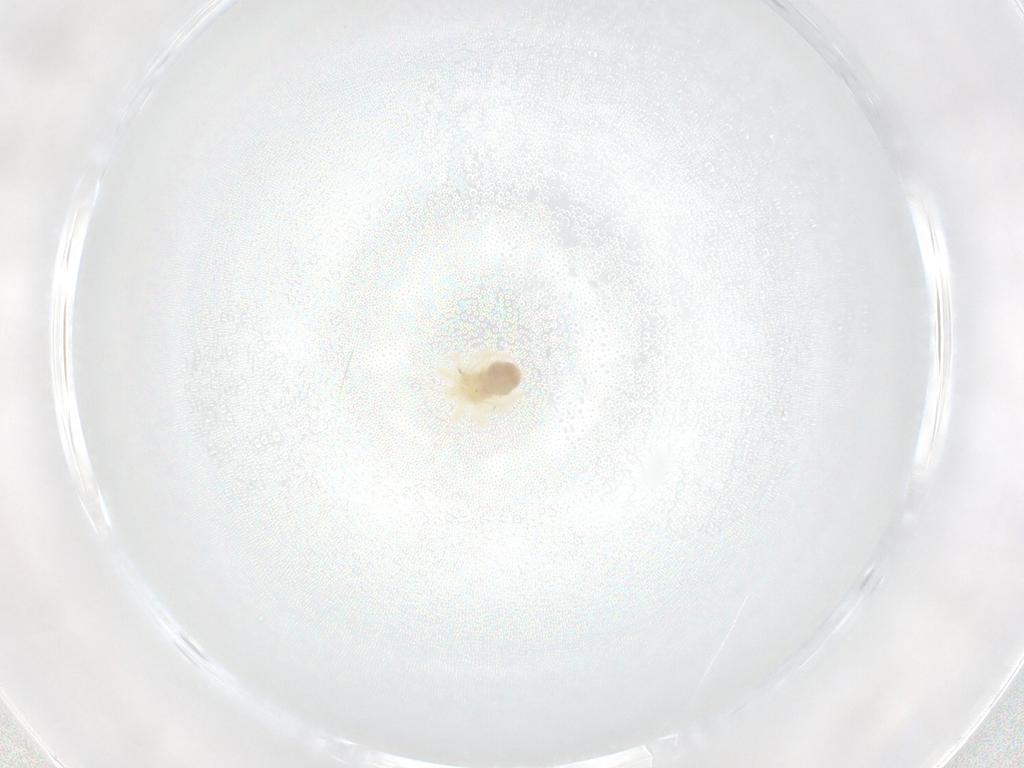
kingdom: Animalia
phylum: Arthropoda
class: Arachnida
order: Trombidiformes
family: Anystidae
